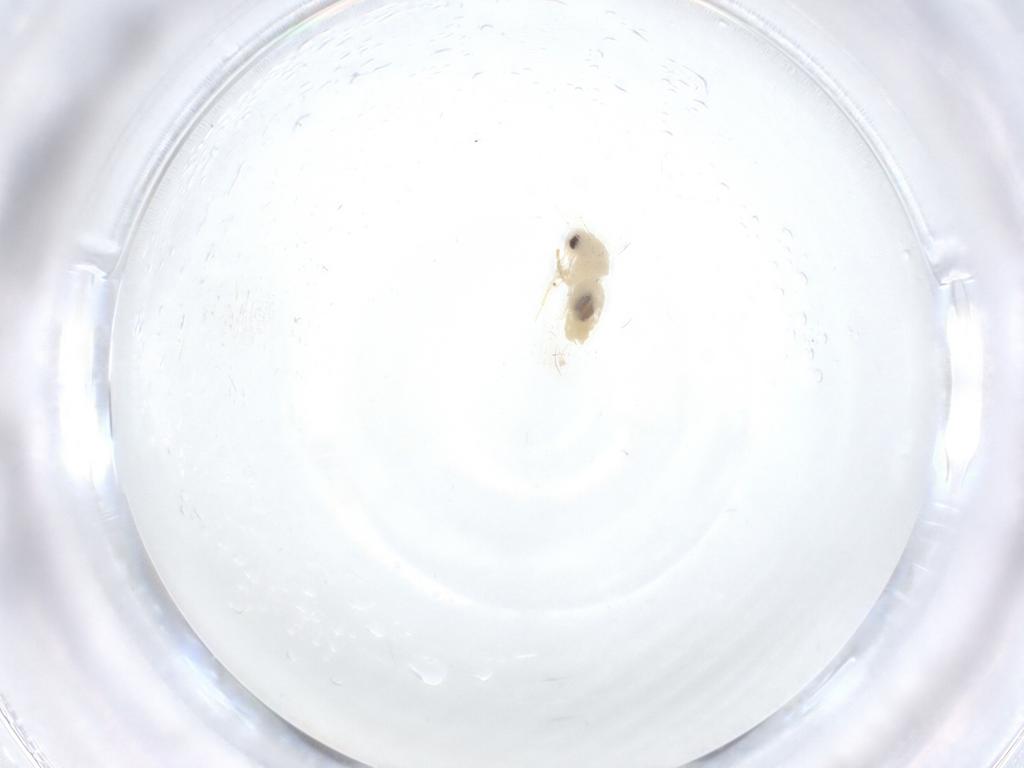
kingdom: Animalia
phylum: Arthropoda
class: Insecta
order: Hemiptera
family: Aleyrodidae
